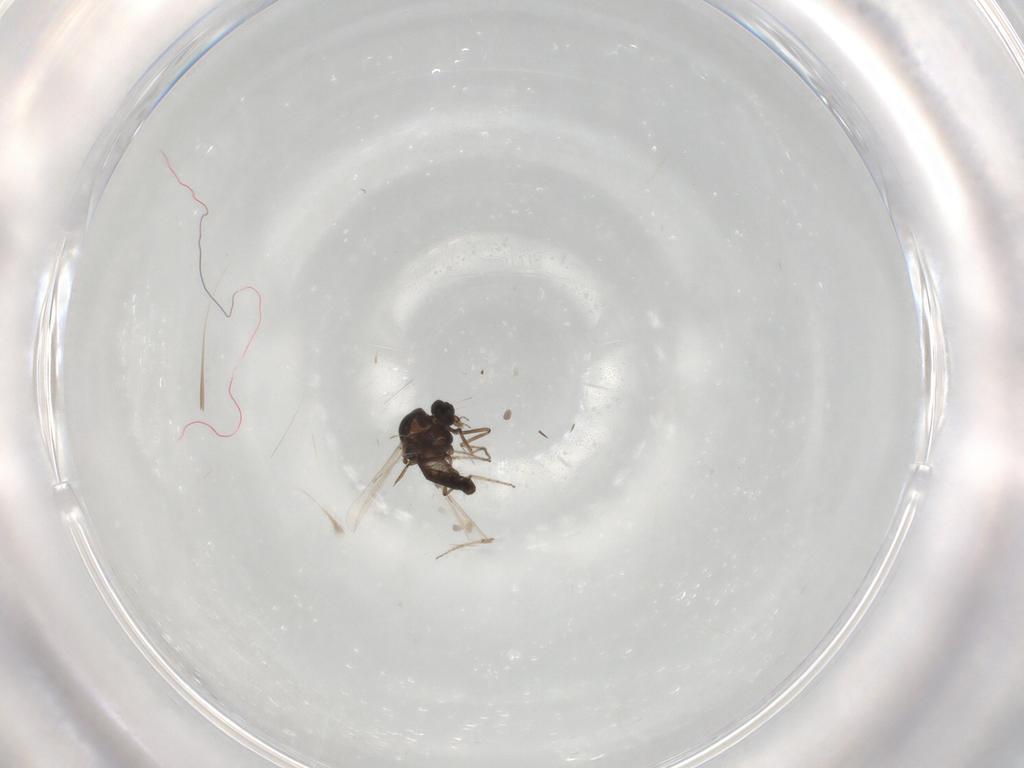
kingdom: Animalia
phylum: Arthropoda
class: Insecta
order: Diptera
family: Ceratopogonidae
